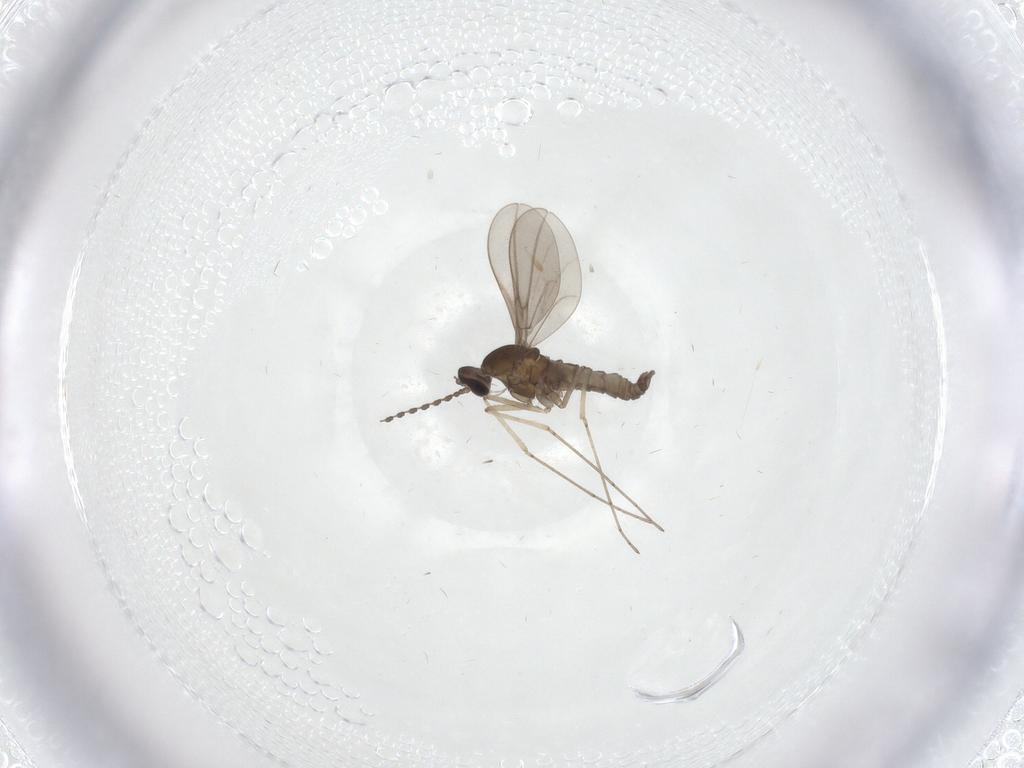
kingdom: Animalia
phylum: Arthropoda
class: Insecta
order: Diptera
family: Cecidomyiidae
